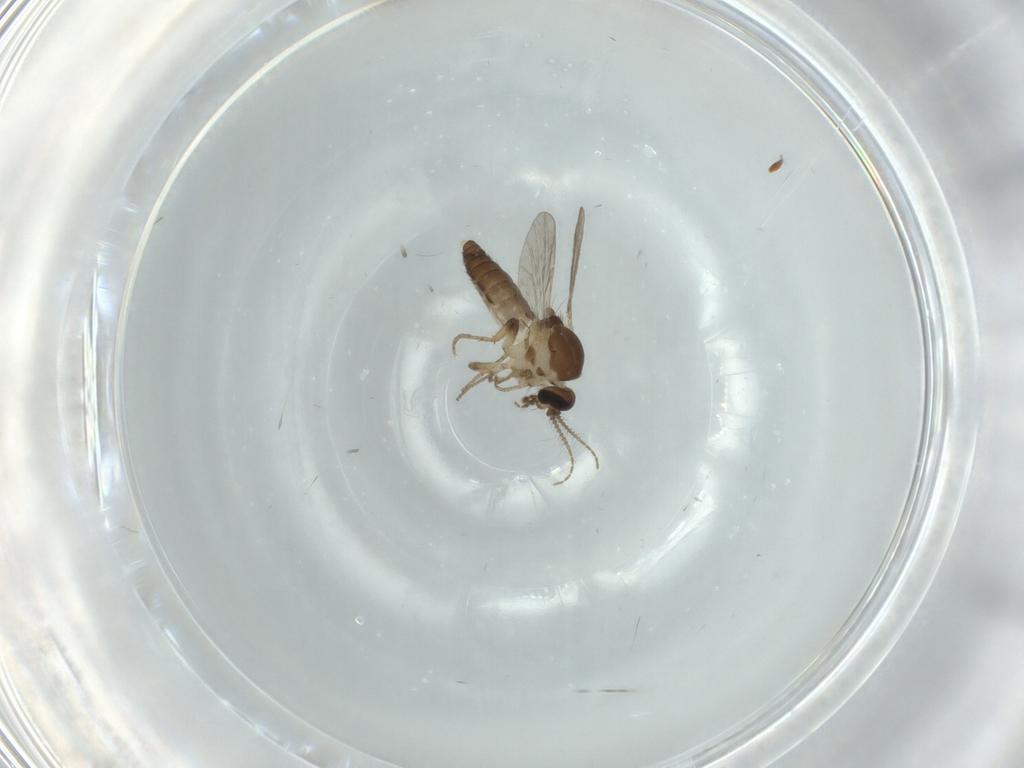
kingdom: Animalia
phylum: Arthropoda
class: Insecta
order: Diptera
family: Ceratopogonidae
